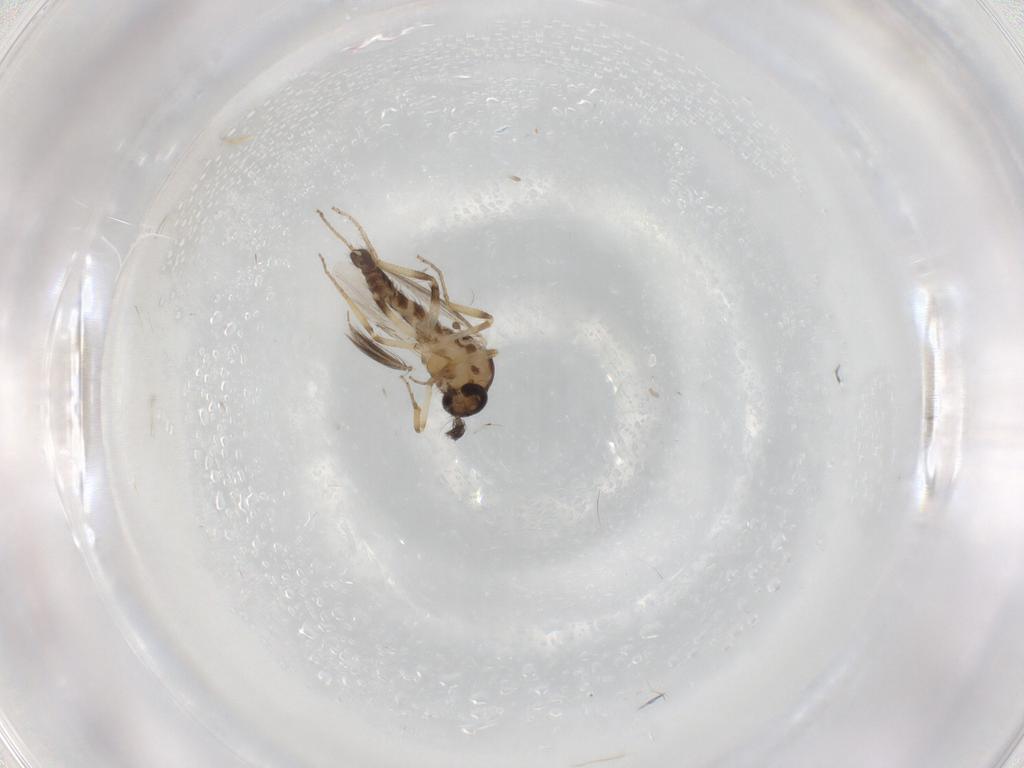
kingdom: Animalia
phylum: Arthropoda
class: Insecta
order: Diptera
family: Ceratopogonidae
